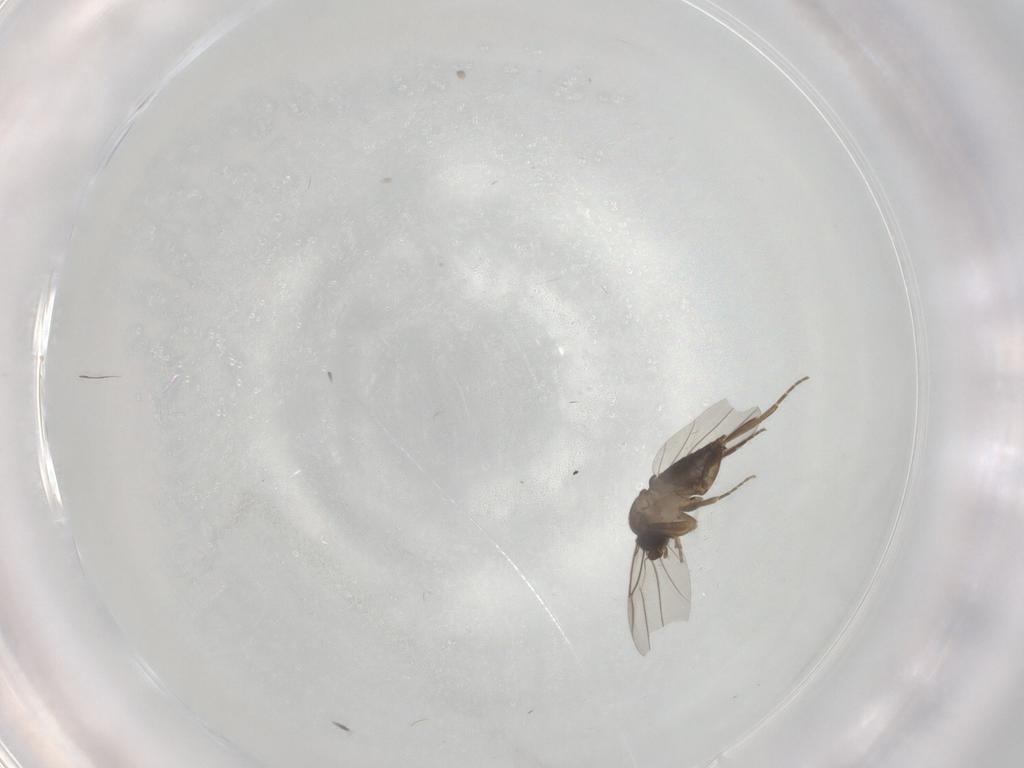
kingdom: Animalia
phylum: Arthropoda
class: Insecta
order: Diptera
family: Phoridae
